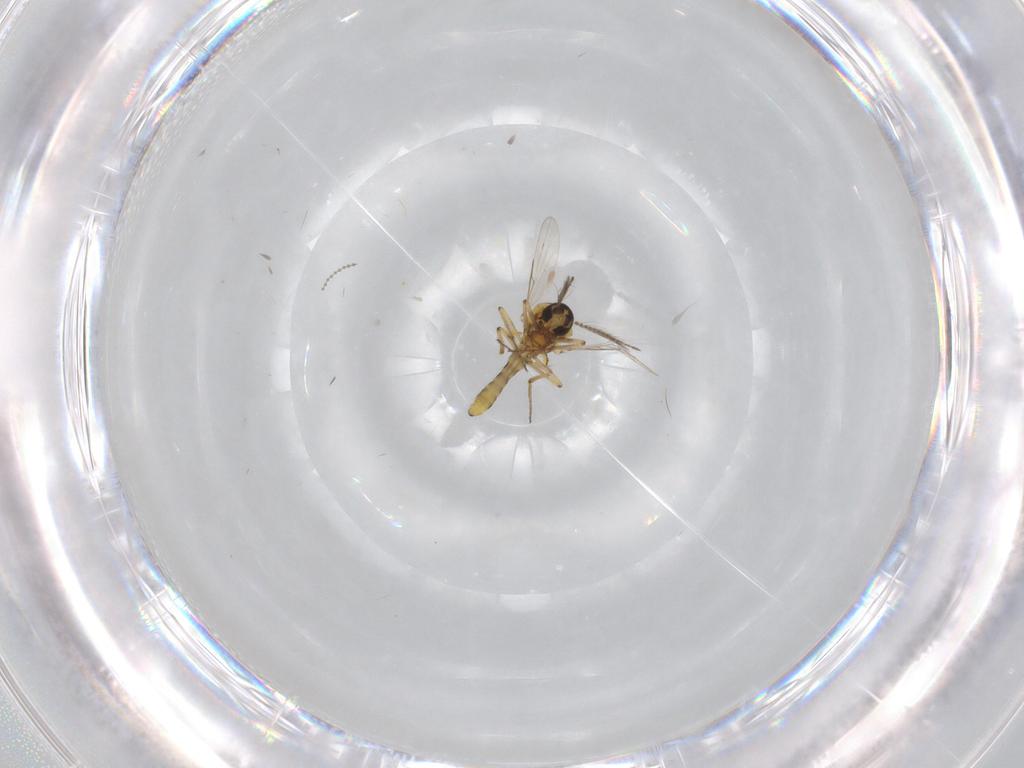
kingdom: Animalia
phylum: Arthropoda
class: Insecta
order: Diptera
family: Ceratopogonidae
